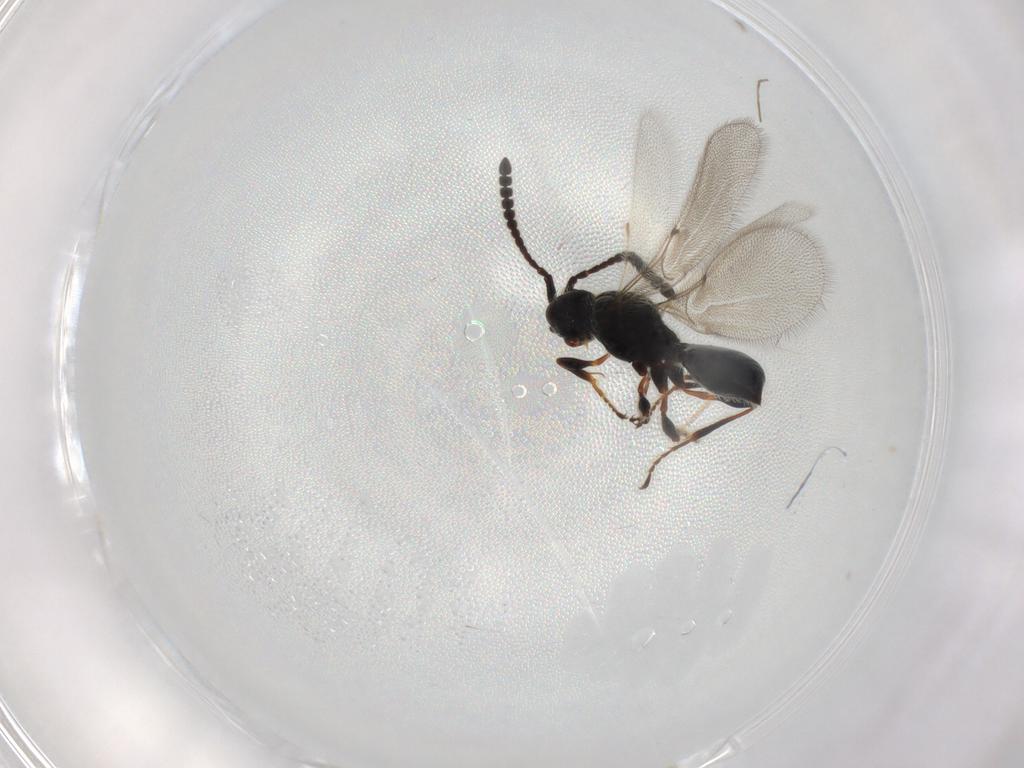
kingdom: Animalia
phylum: Arthropoda
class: Insecta
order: Hymenoptera
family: Diapriidae
